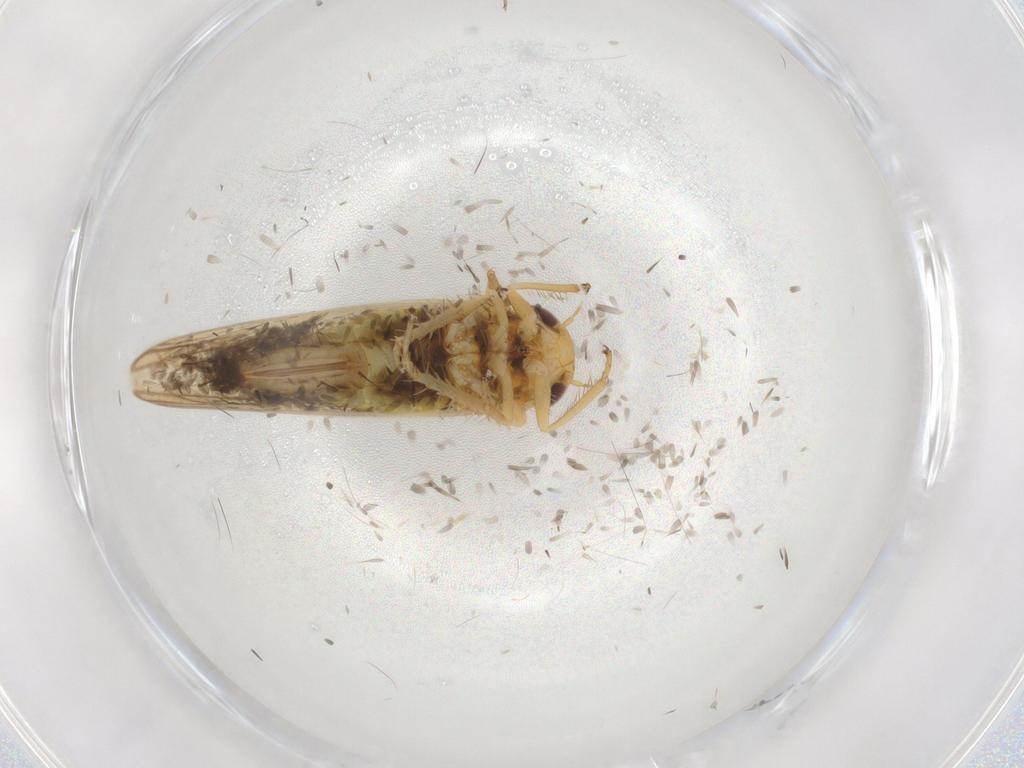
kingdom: Animalia
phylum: Arthropoda
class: Insecta
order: Hemiptera
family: Cicadellidae
